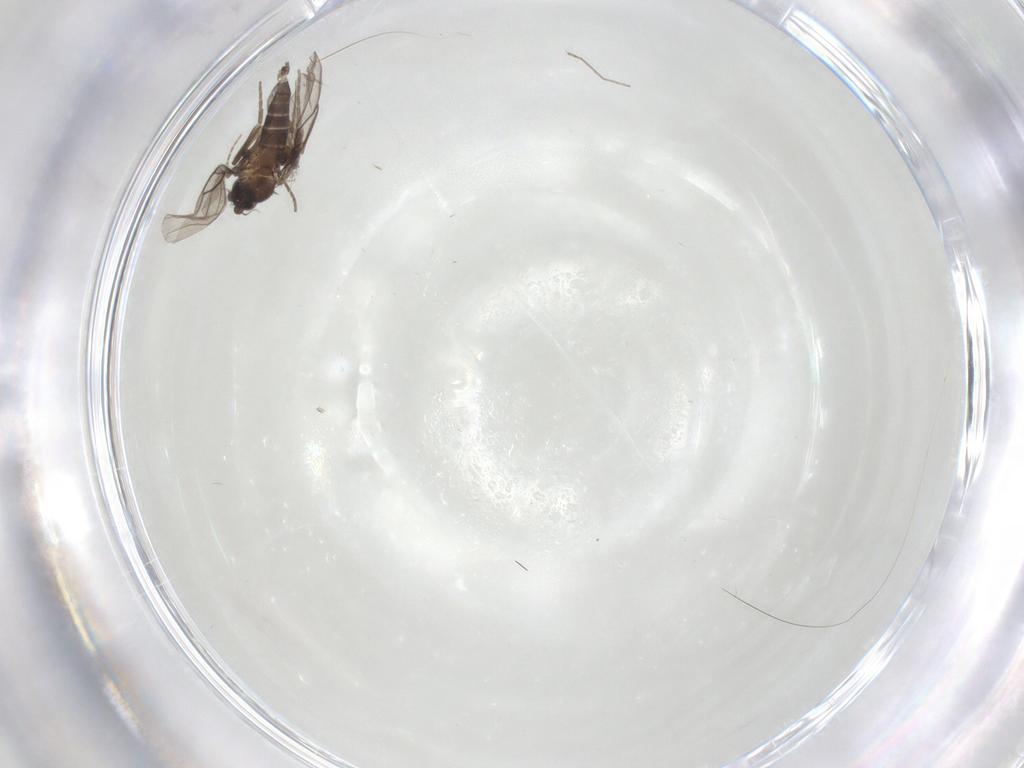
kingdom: Animalia
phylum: Arthropoda
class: Insecta
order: Diptera
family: Phoridae
